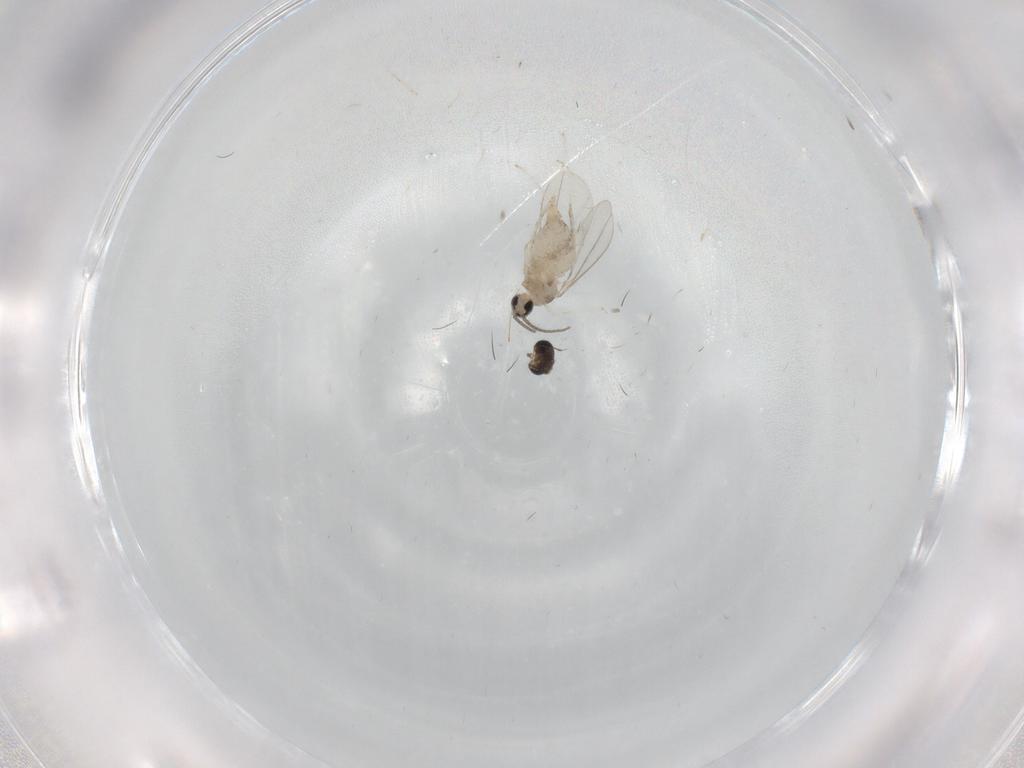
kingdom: Animalia
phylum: Arthropoda
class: Insecta
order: Diptera
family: Cecidomyiidae
